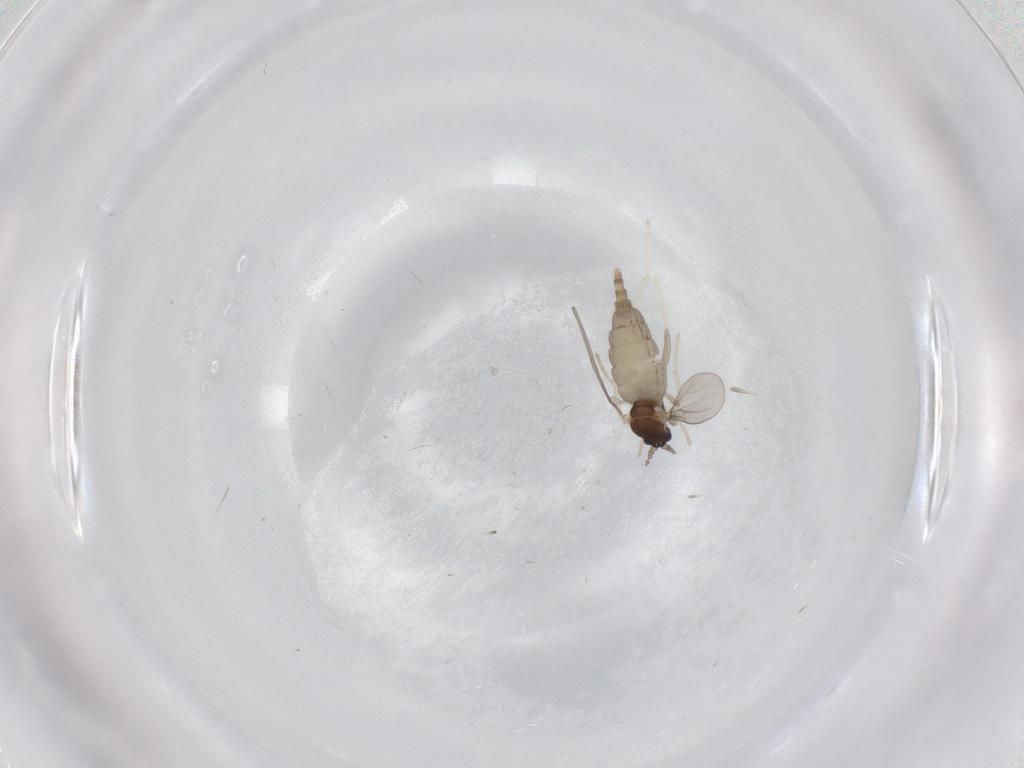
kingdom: Animalia
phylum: Arthropoda
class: Insecta
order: Diptera
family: Cecidomyiidae
